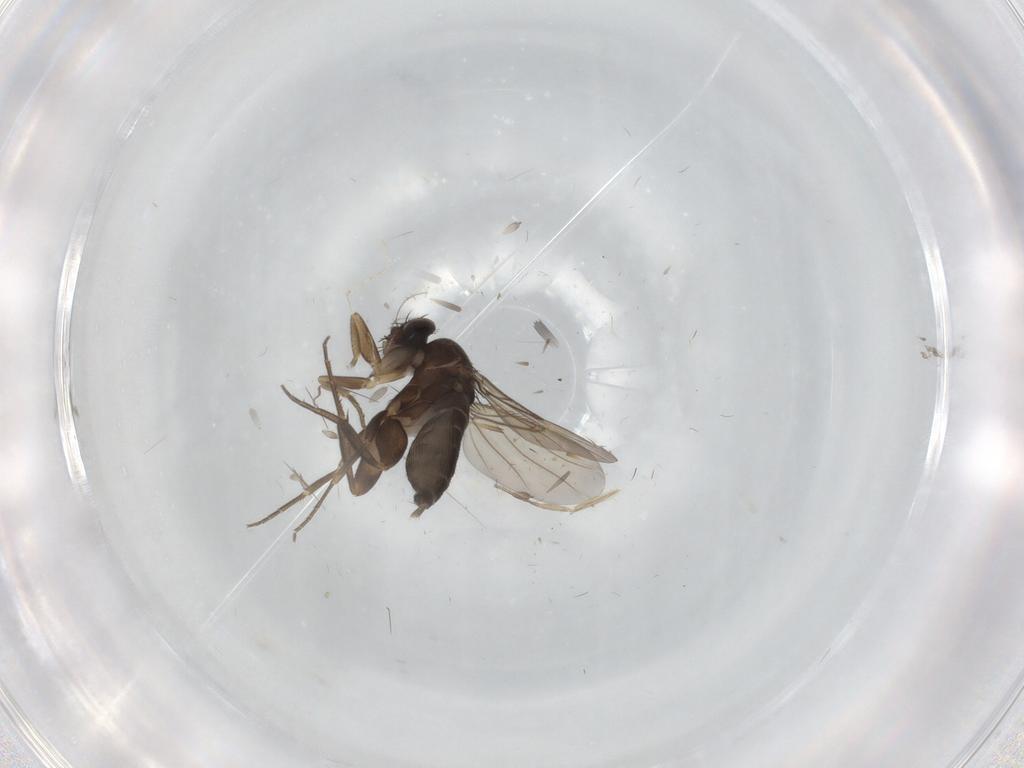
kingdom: Animalia
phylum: Arthropoda
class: Insecta
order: Diptera
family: Phoridae
